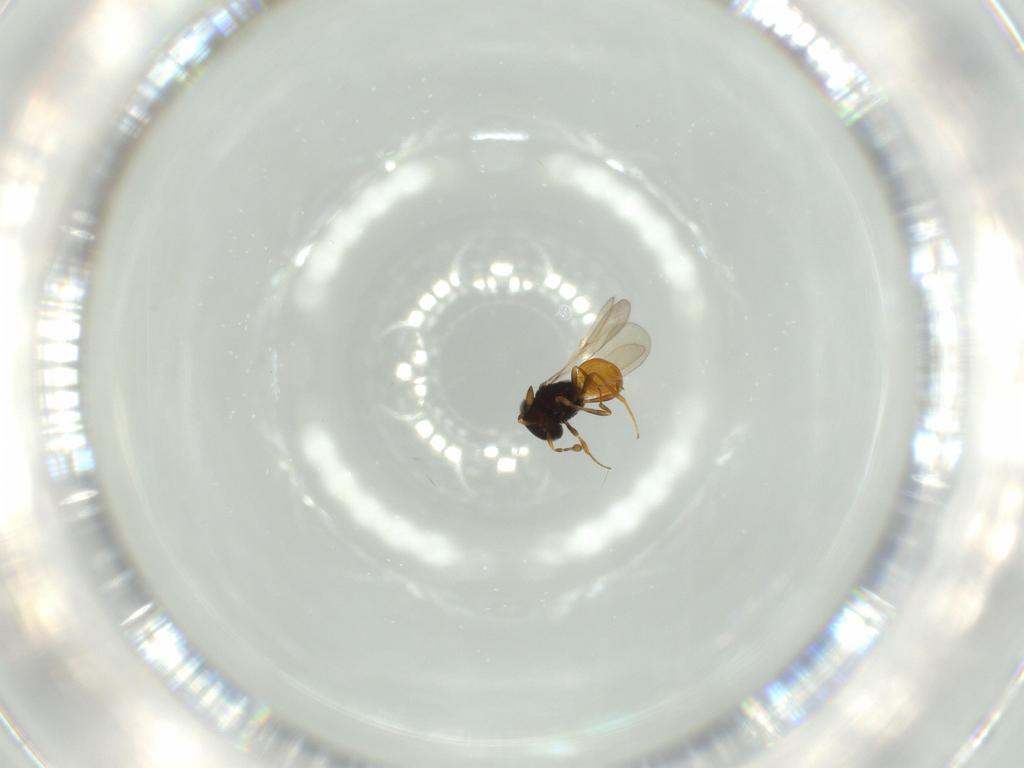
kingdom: Animalia
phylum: Arthropoda
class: Insecta
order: Hymenoptera
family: Scelionidae
